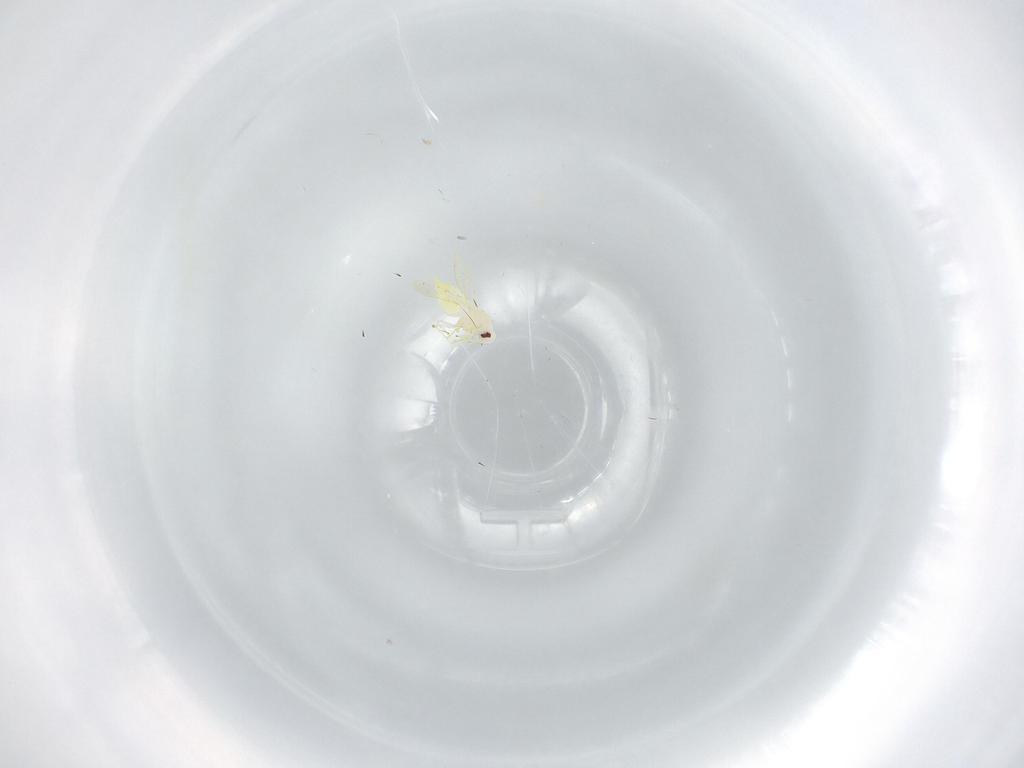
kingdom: Animalia
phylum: Arthropoda
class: Insecta
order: Hemiptera
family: Aleyrodidae
